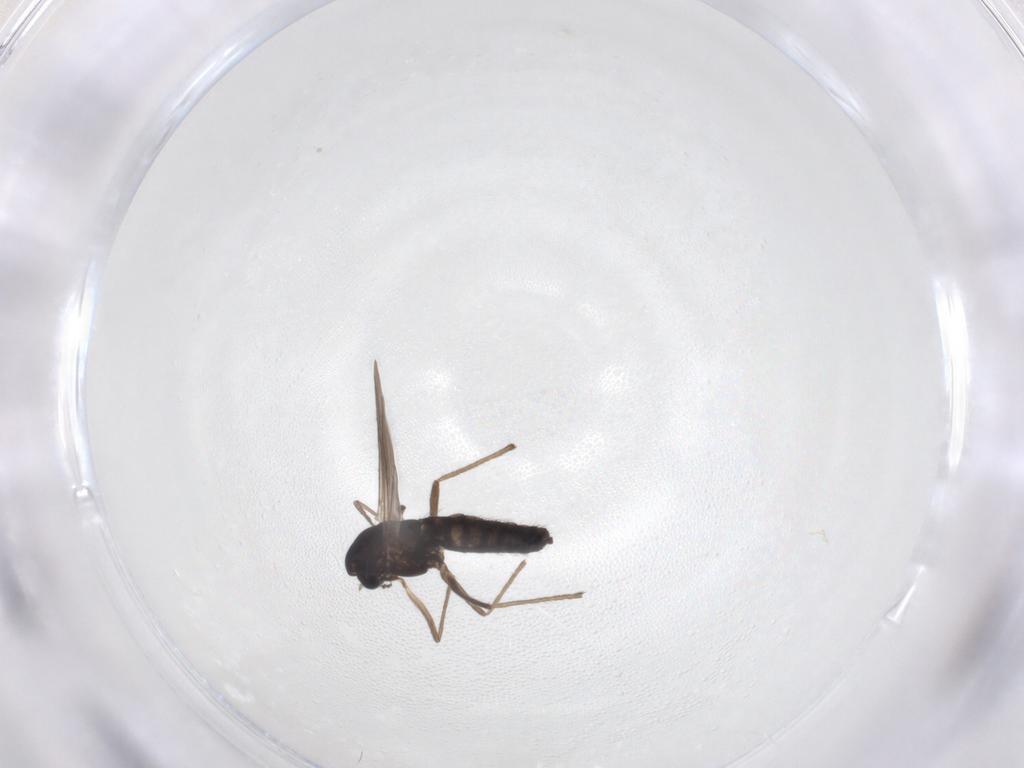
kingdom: Animalia
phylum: Arthropoda
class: Insecta
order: Diptera
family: Chironomidae
